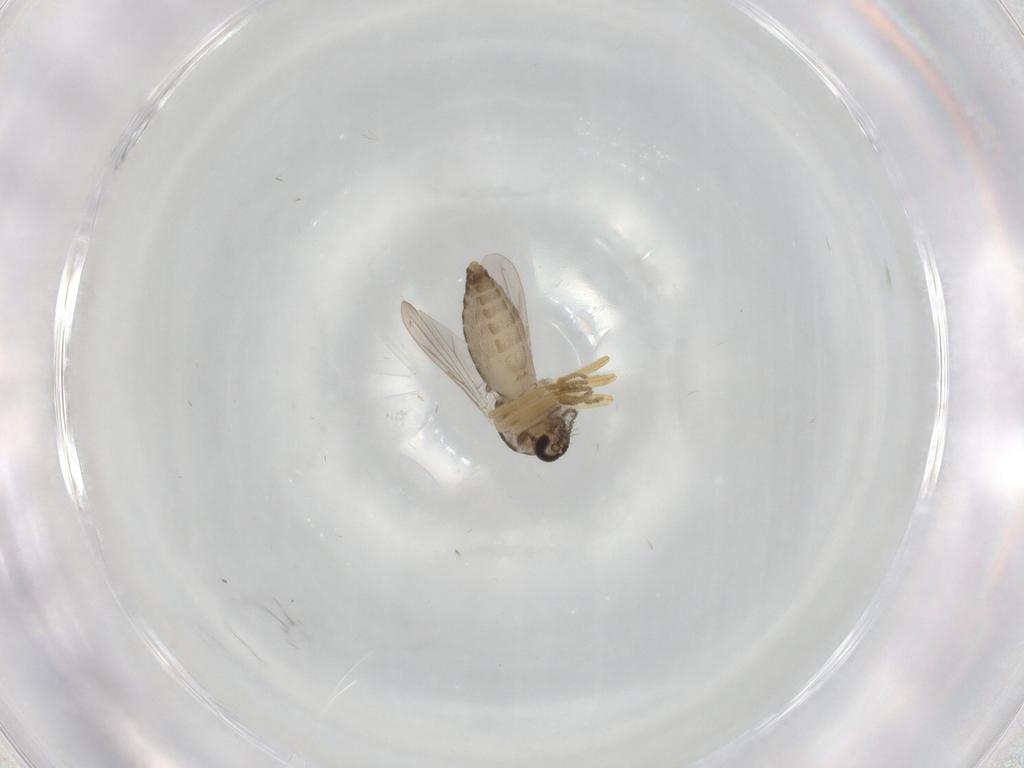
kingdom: Animalia
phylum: Arthropoda
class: Insecta
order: Diptera
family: Ceratopogonidae
